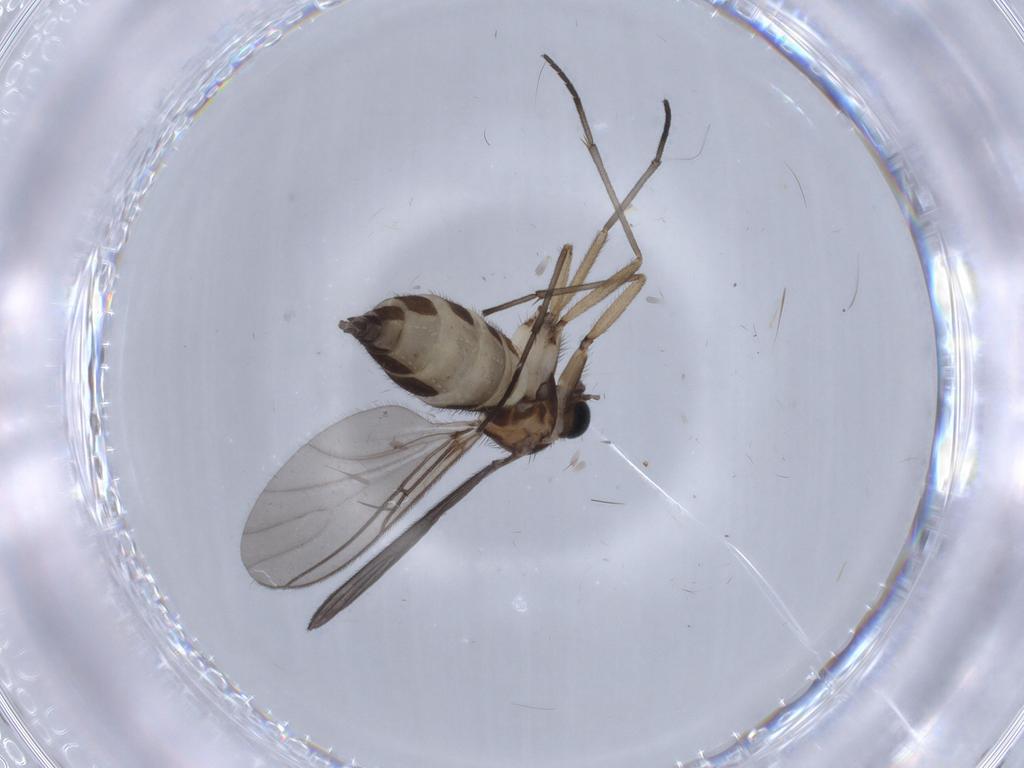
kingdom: Animalia
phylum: Arthropoda
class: Insecta
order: Diptera
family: Sciaridae
